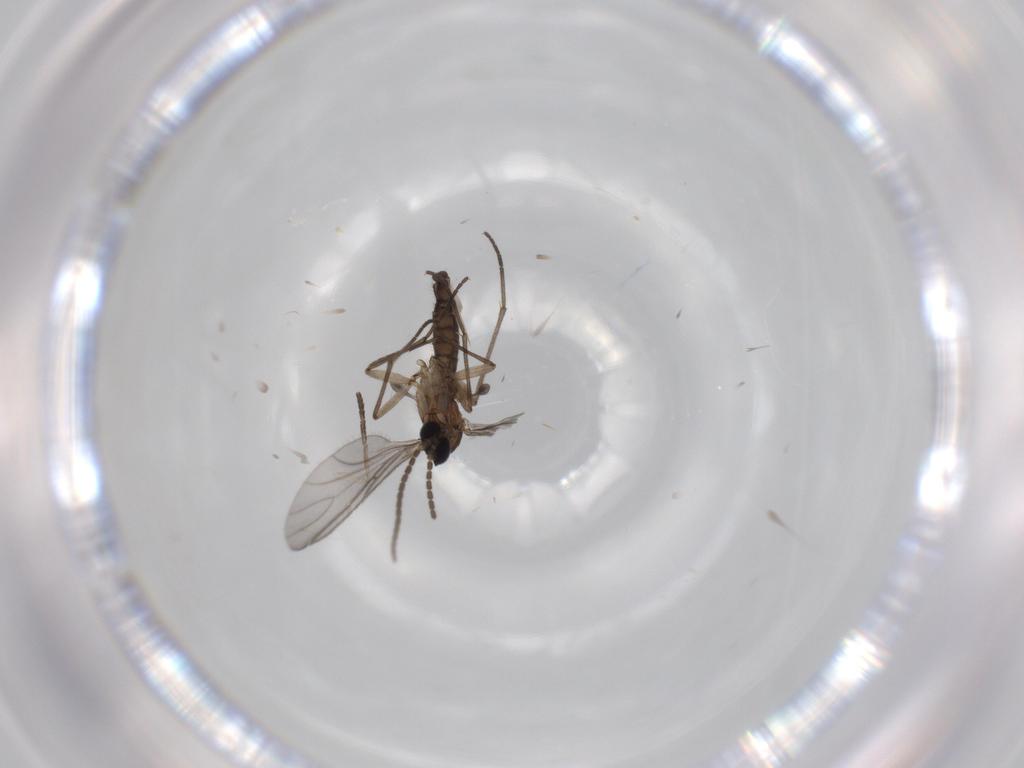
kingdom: Animalia
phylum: Arthropoda
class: Insecta
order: Diptera
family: Sciaridae
